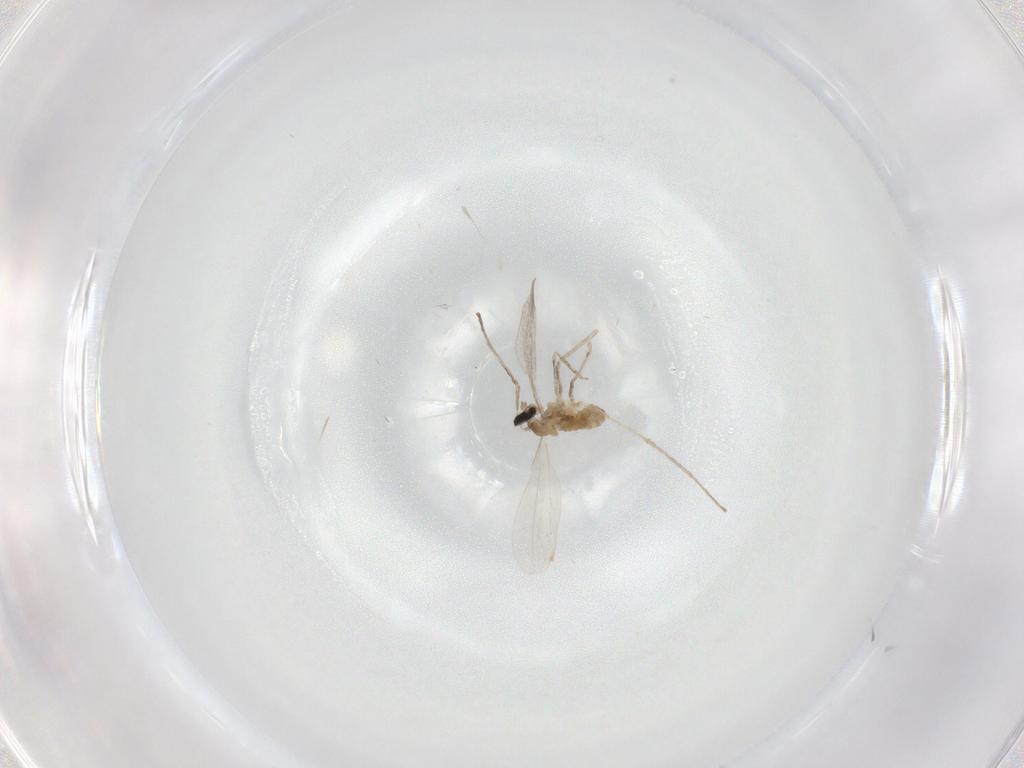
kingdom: Animalia
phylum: Arthropoda
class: Insecta
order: Diptera
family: Cecidomyiidae
